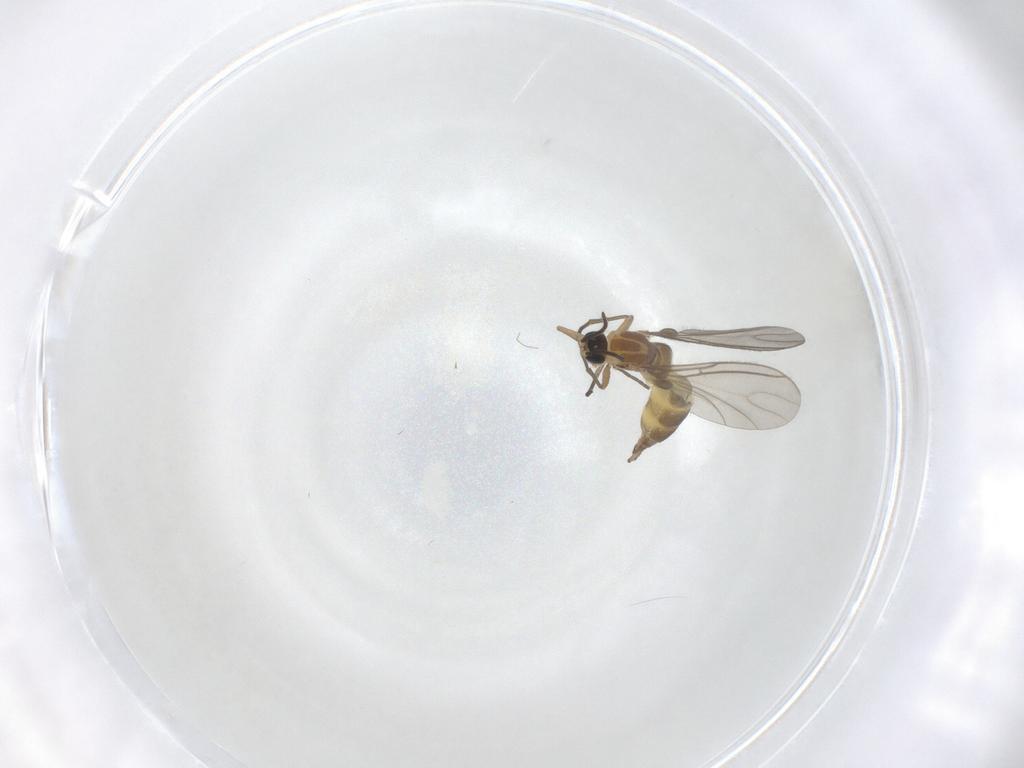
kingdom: Animalia
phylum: Arthropoda
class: Insecta
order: Diptera
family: Sciaridae
